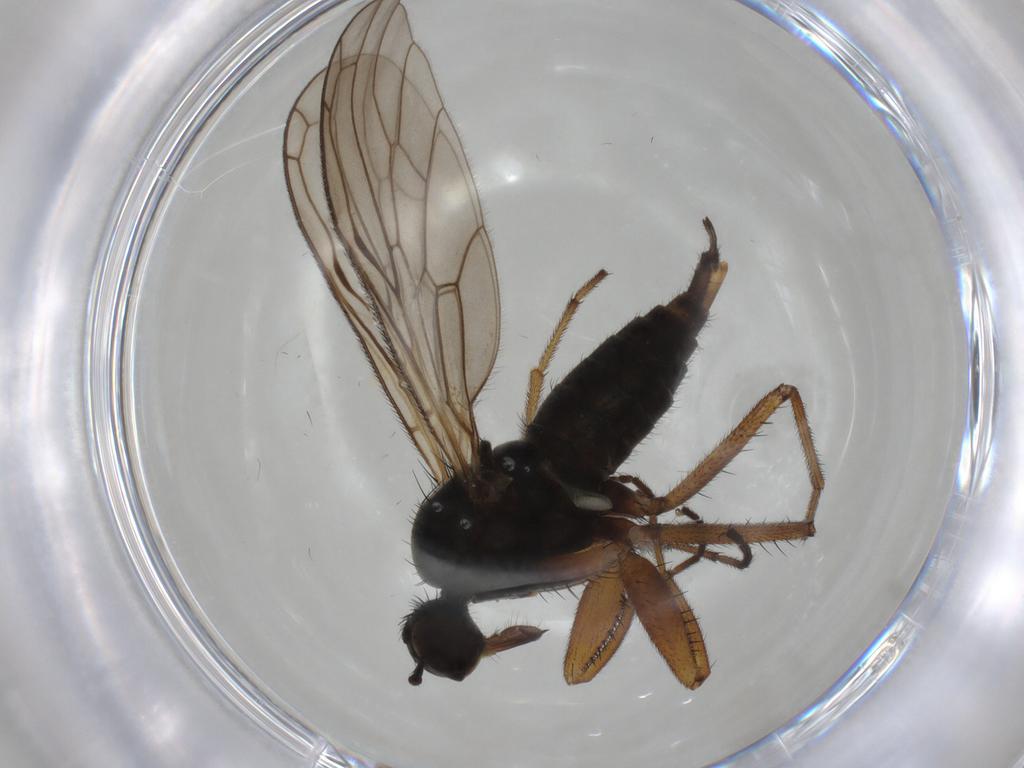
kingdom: Animalia
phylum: Arthropoda
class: Insecta
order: Diptera
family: Empididae
